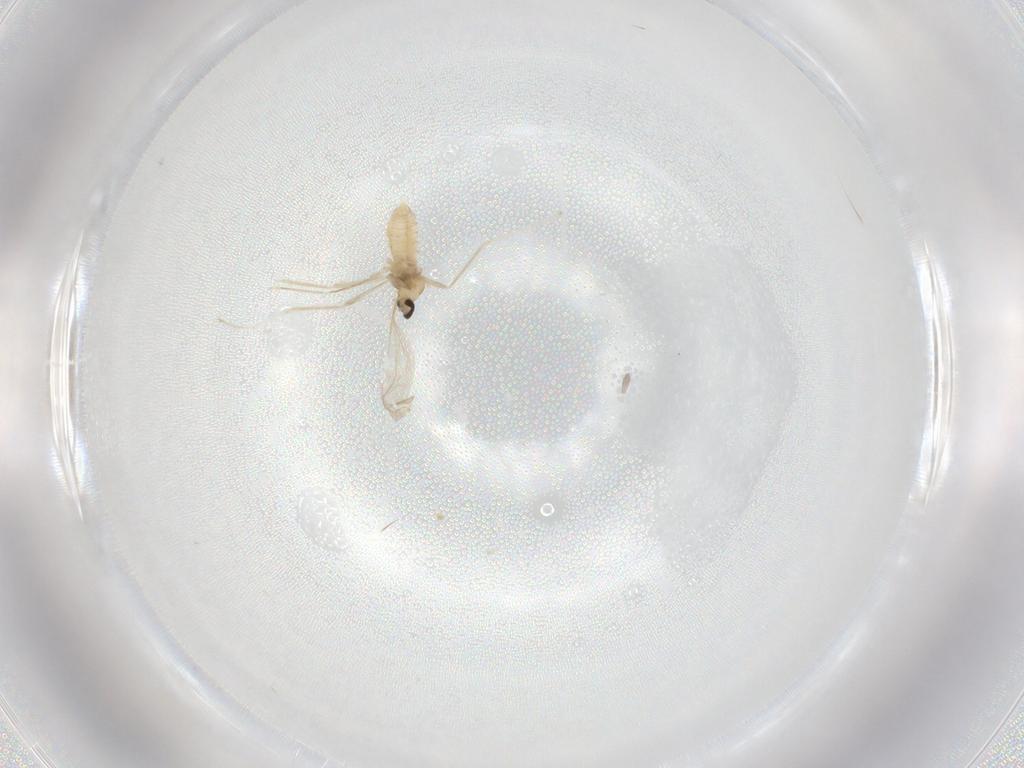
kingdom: Animalia
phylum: Arthropoda
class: Insecta
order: Diptera
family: Cecidomyiidae
